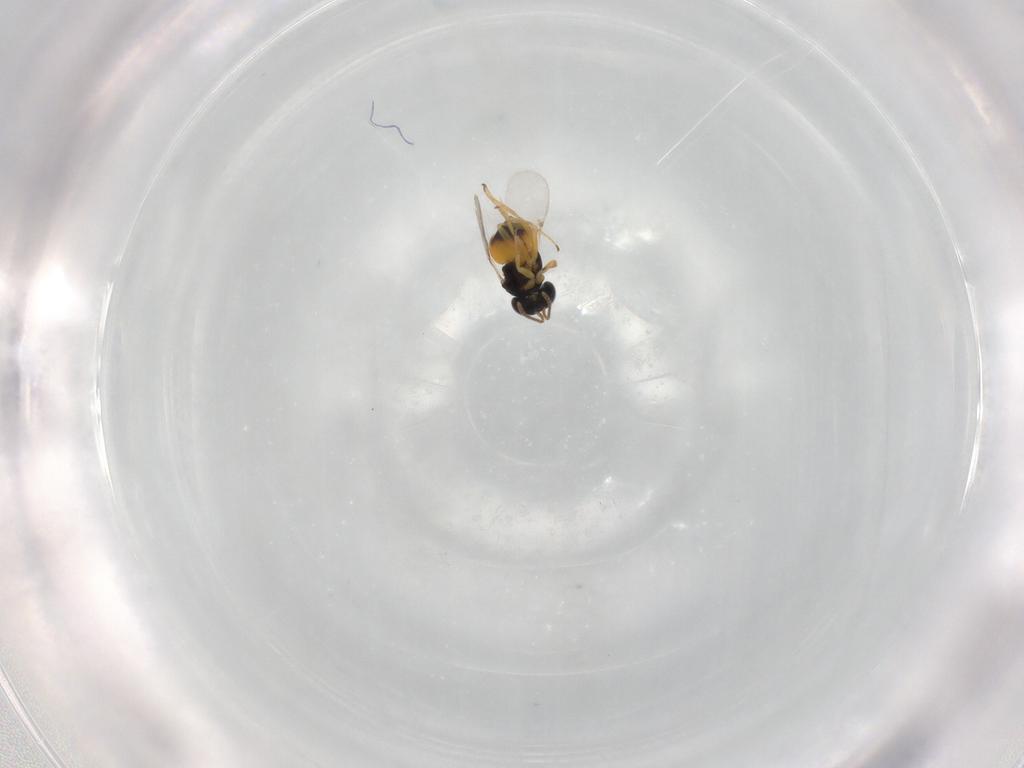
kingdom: Animalia
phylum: Arthropoda
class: Insecta
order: Hymenoptera
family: Encyrtidae
